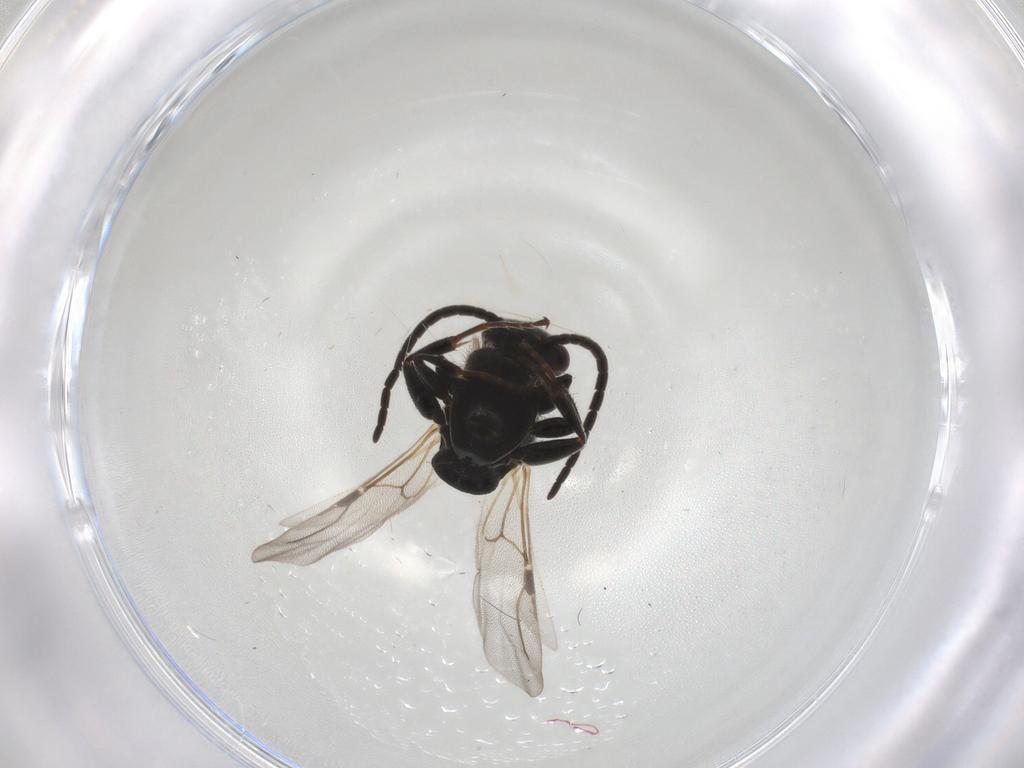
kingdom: Animalia
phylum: Arthropoda
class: Insecta
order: Hymenoptera
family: Bethylidae
